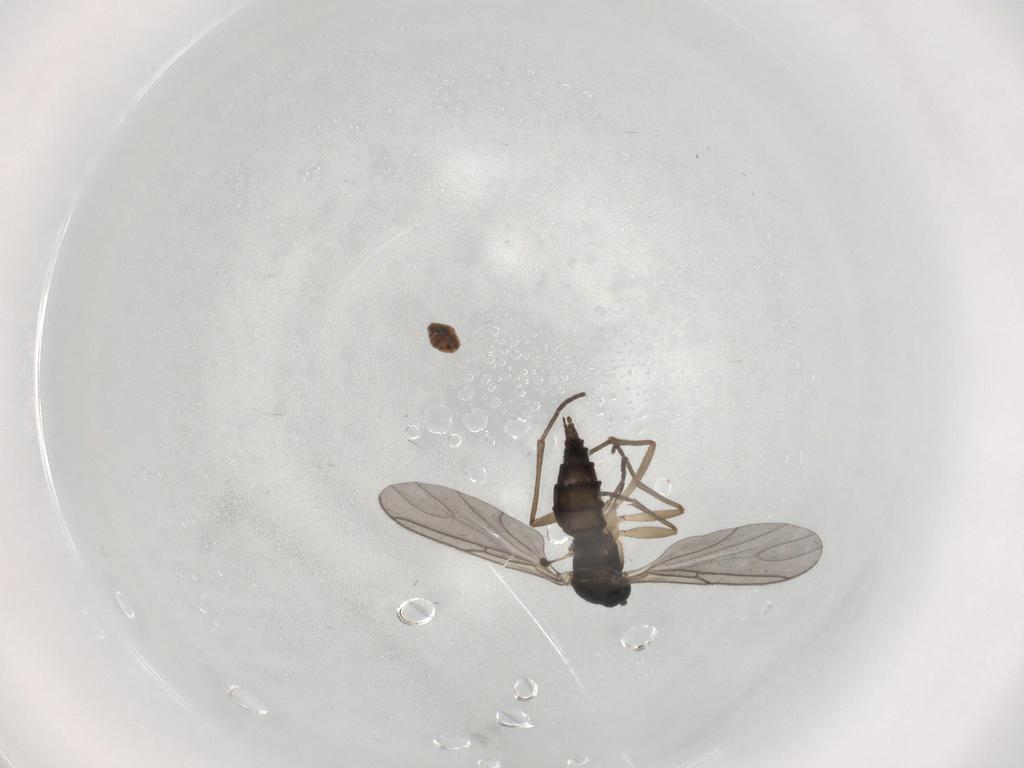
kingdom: Animalia
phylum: Arthropoda
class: Insecta
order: Diptera
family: Sciaridae
